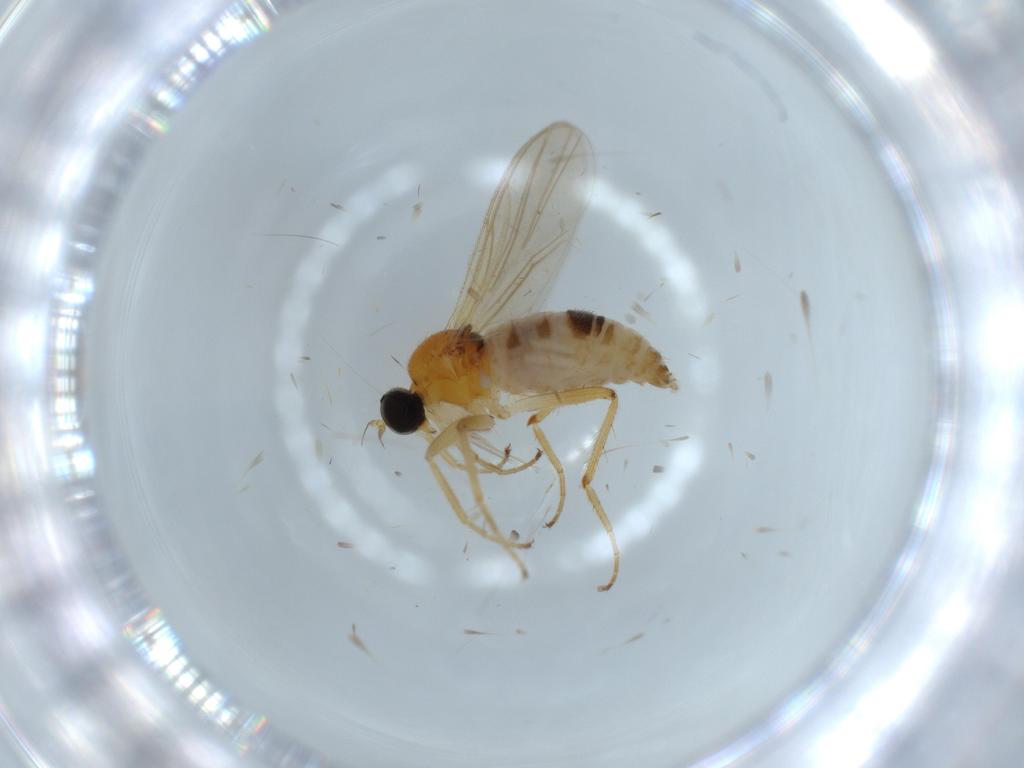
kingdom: Animalia
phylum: Arthropoda
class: Insecta
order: Diptera
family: Hybotidae
